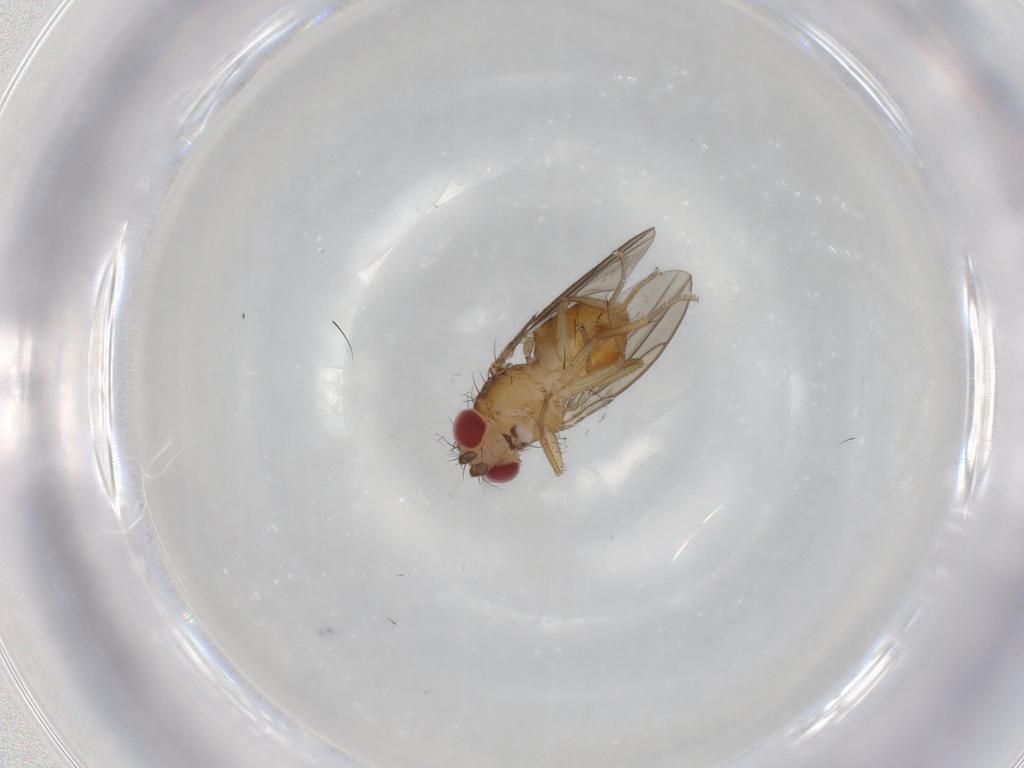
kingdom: Animalia
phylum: Arthropoda
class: Insecta
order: Diptera
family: Drosophilidae
